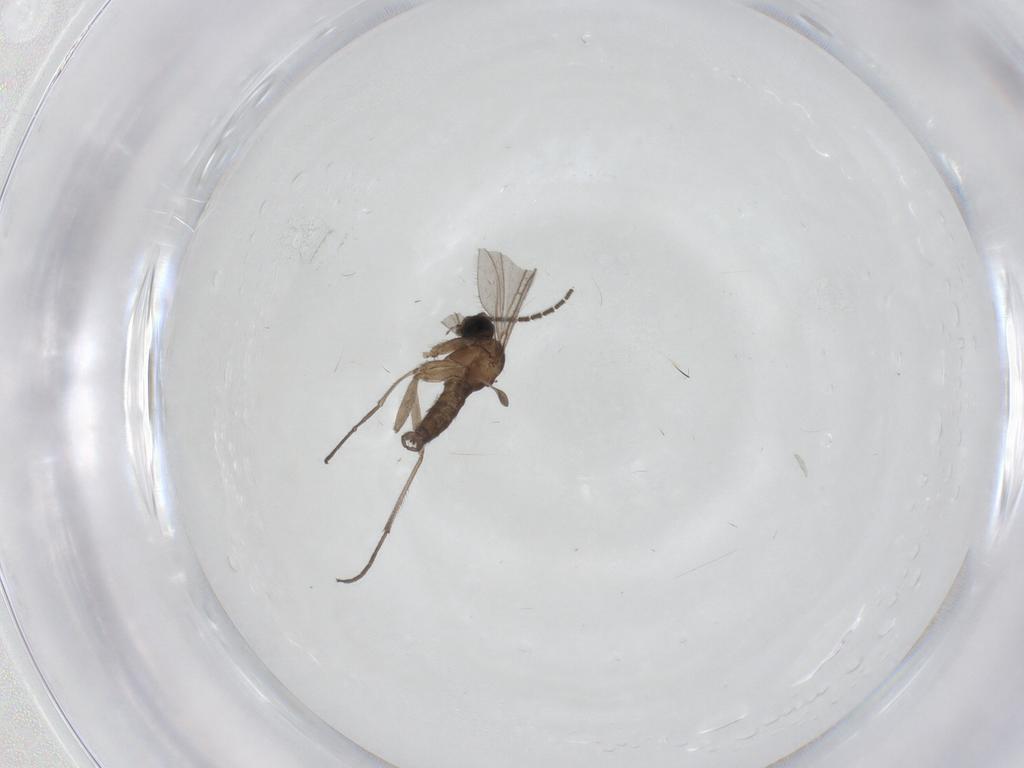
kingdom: Animalia
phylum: Arthropoda
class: Insecta
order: Diptera
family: Sciaridae
